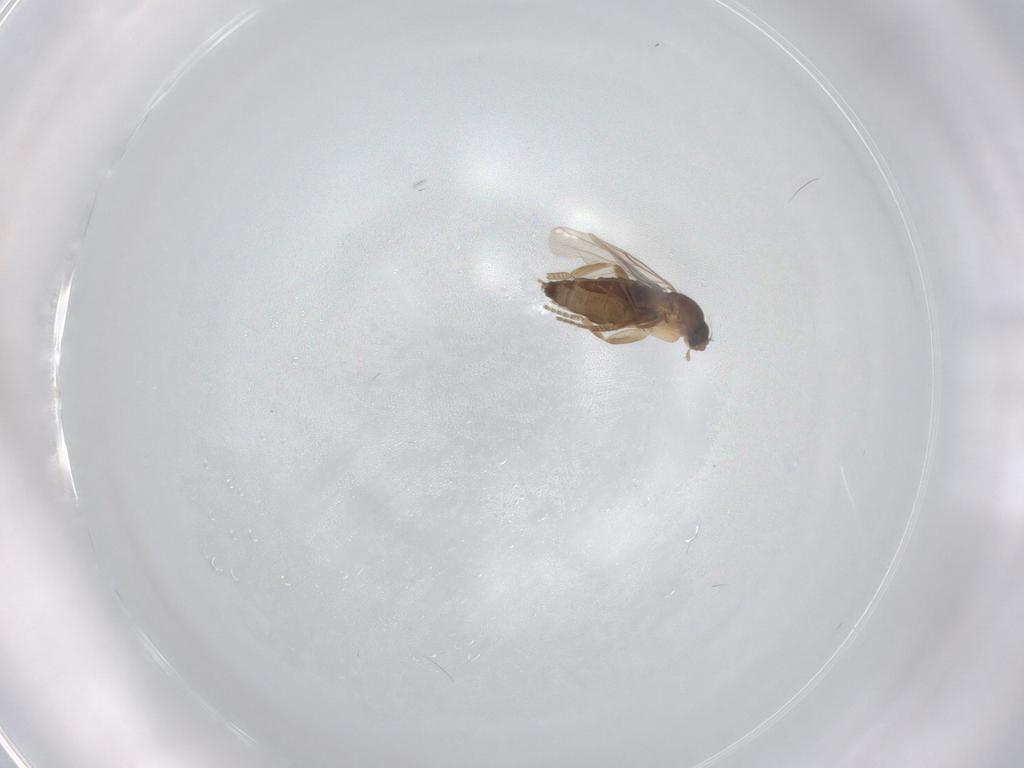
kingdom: Animalia
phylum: Arthropoda
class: Insecta
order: Diptera
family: Phoridae
